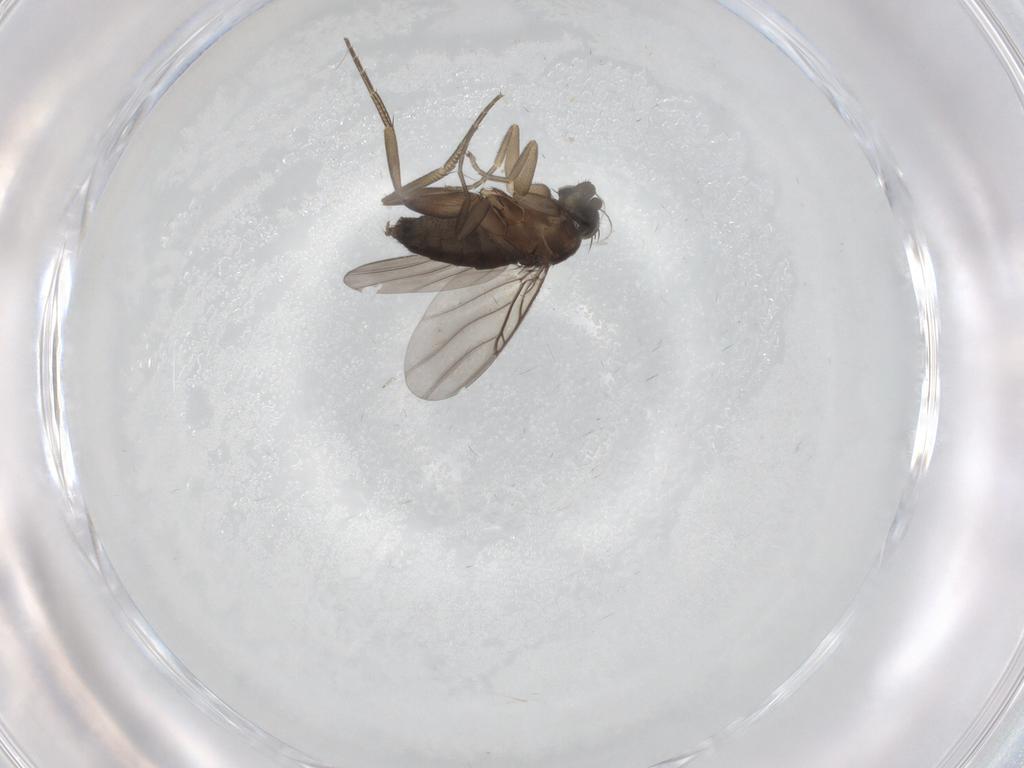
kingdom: Animalia
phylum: Arthropoda
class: Insecta
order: Diptera
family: Phoridae
